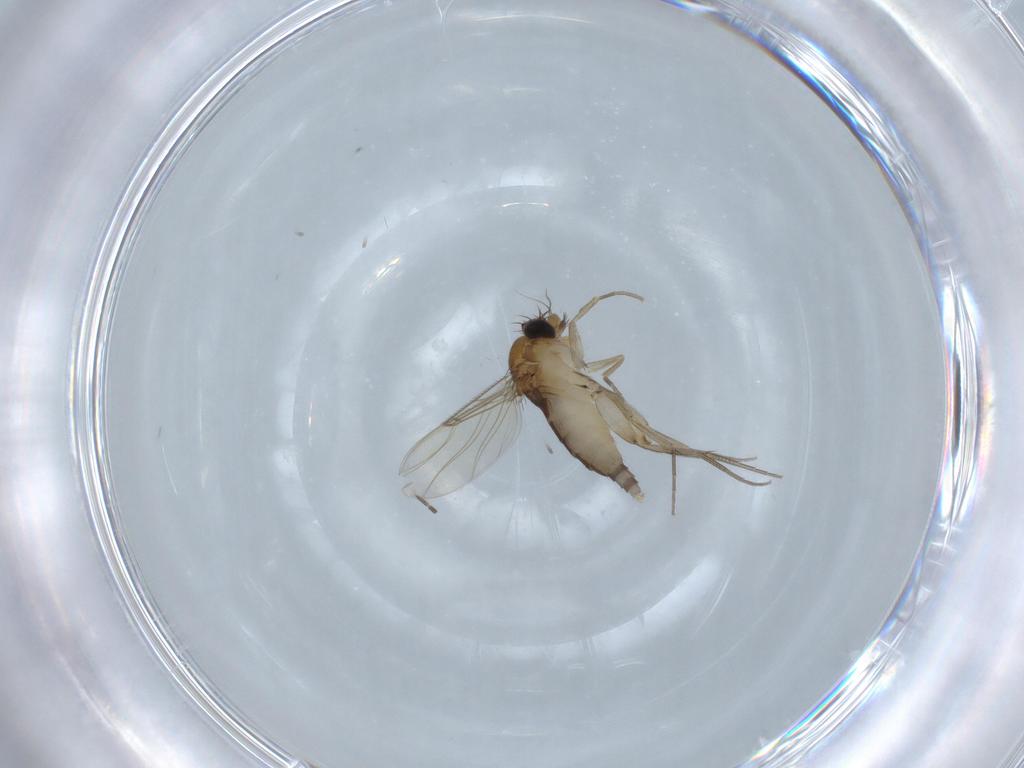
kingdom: Animalia
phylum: Arthropoda
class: Insecta
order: Diptera
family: Phoridae
